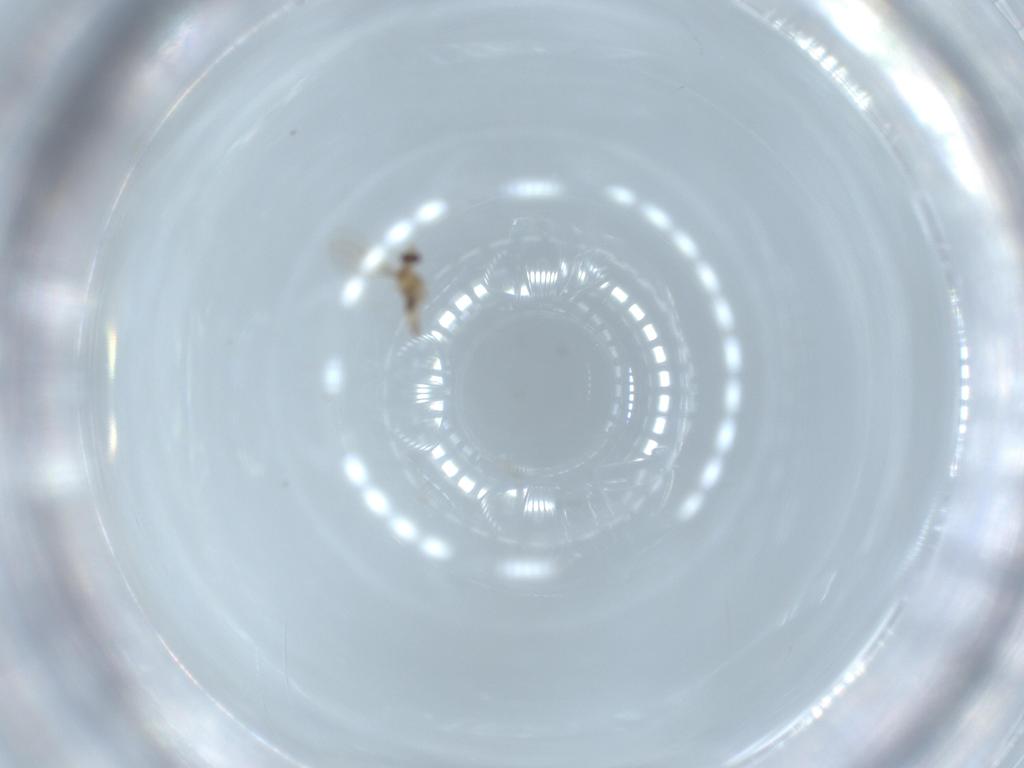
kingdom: Animalia
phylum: Arthropoda
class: Insecta
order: Diptera
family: Cecidomyiidae
